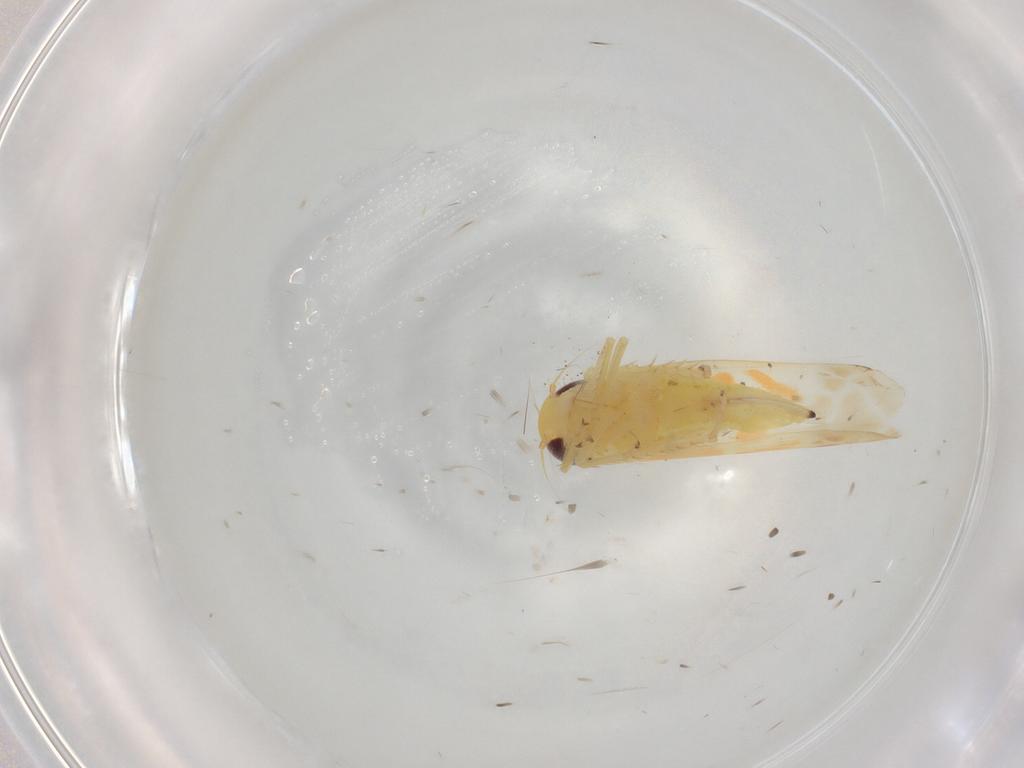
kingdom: Animalia
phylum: Arthropoda
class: Insecta
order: Hemiptera
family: Cicadellidae
